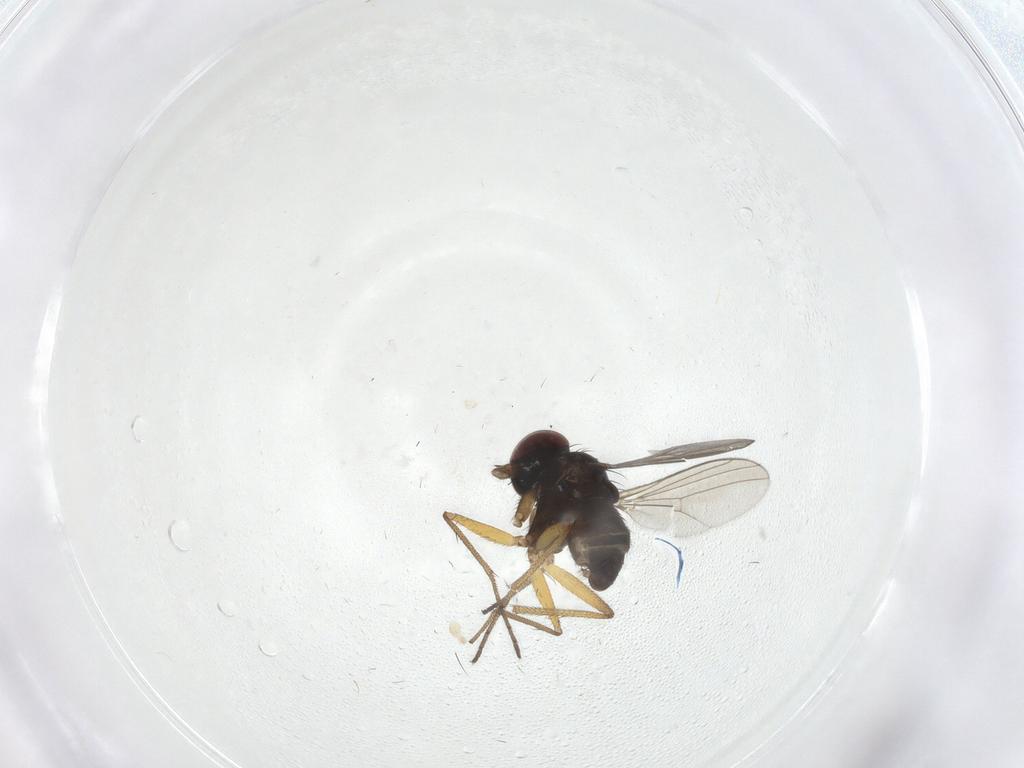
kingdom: Animalia
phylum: Arthropoda
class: Insecta
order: Diptera
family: Dolichopodidae
